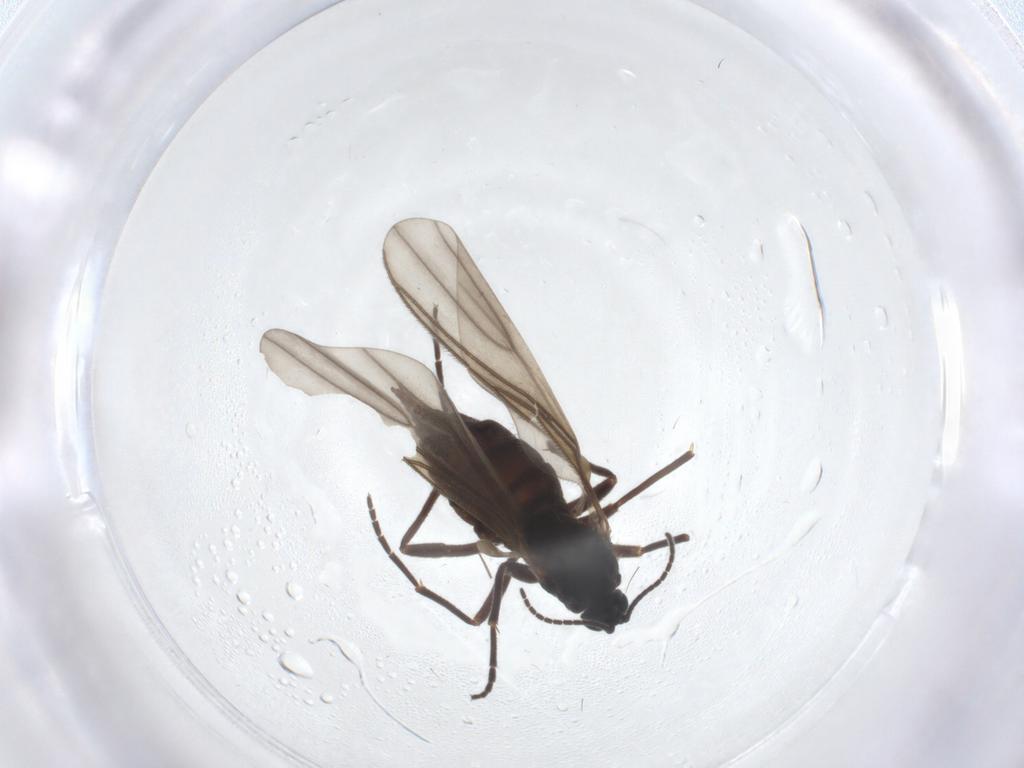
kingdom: Animalia
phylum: Arthropoda
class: Insecta
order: Diptera
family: Sciaridae
